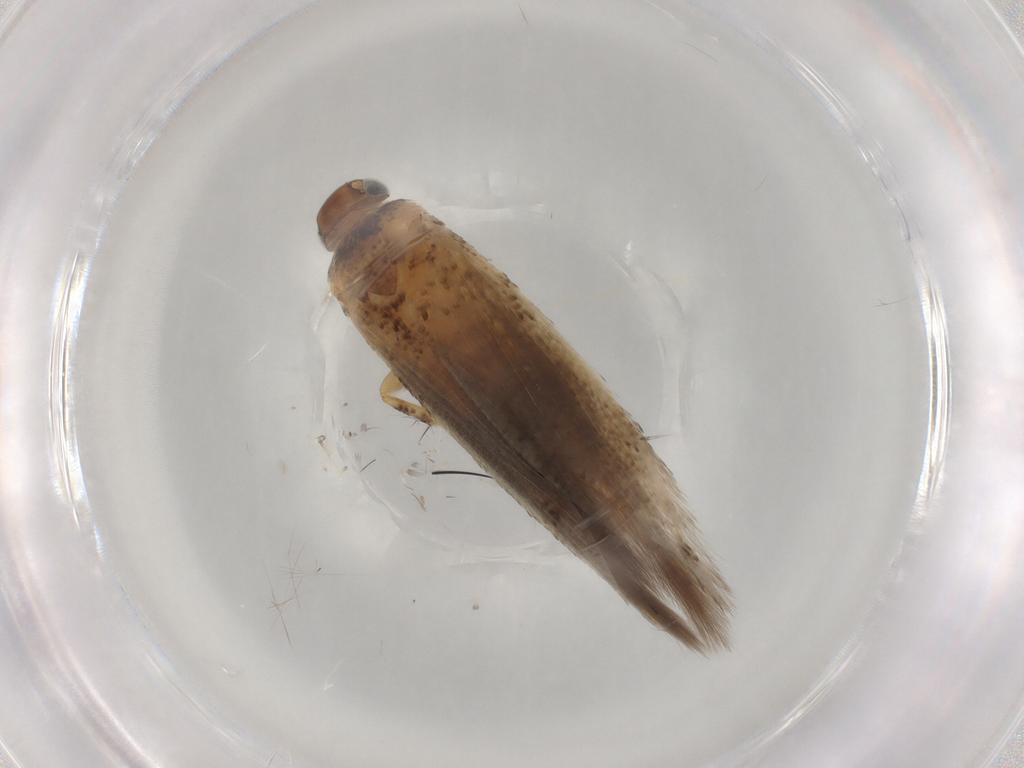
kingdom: Animalia
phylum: Arthropoda
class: Insecta
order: Lepidoptera
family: Gelechiidae
